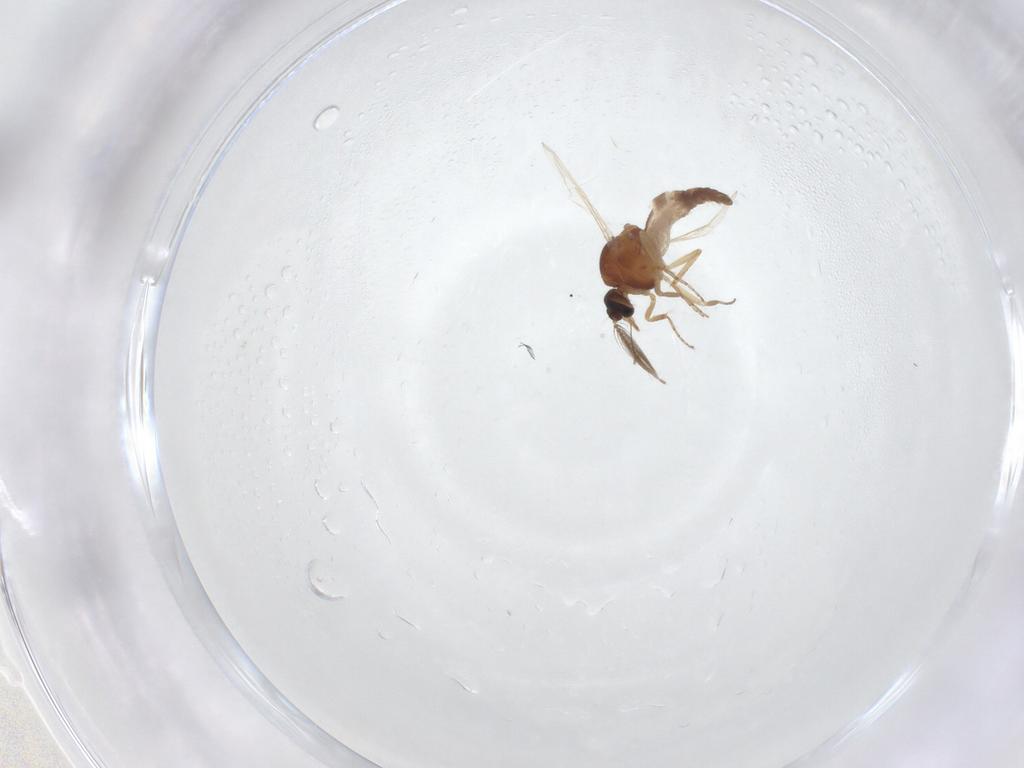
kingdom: Animalia
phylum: Arthropoda
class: Insecta
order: Diptera
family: Ceratopogonidae
